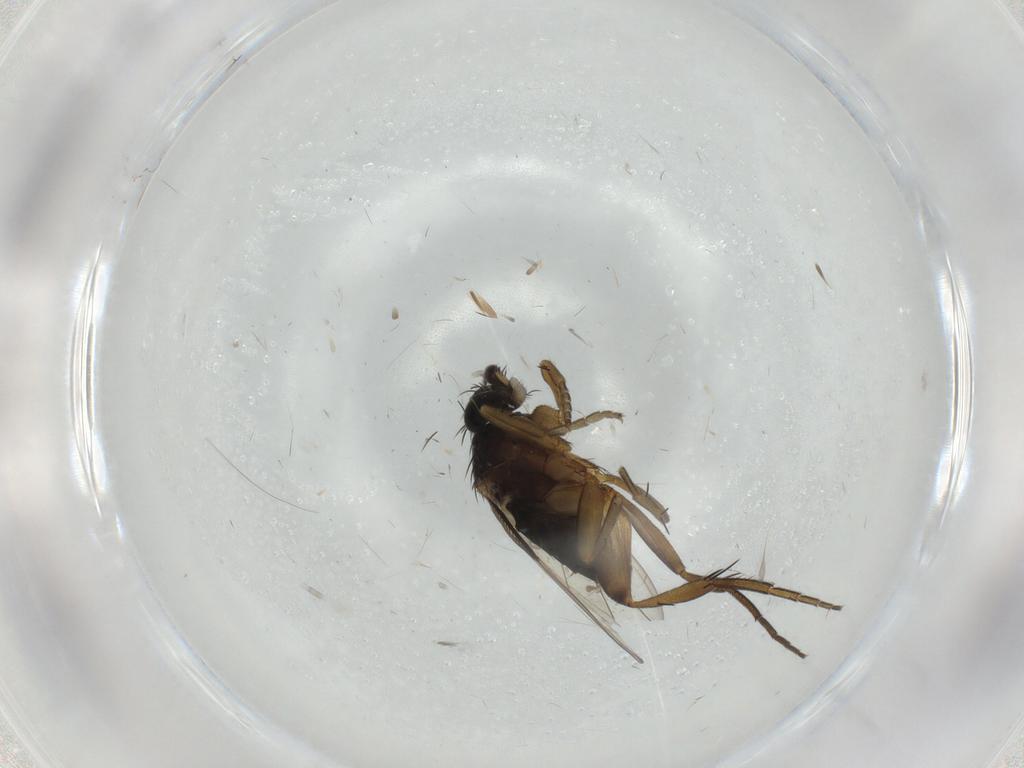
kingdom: Animalia
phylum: Arthropoda
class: Insecta
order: Diptera
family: Phoridae
